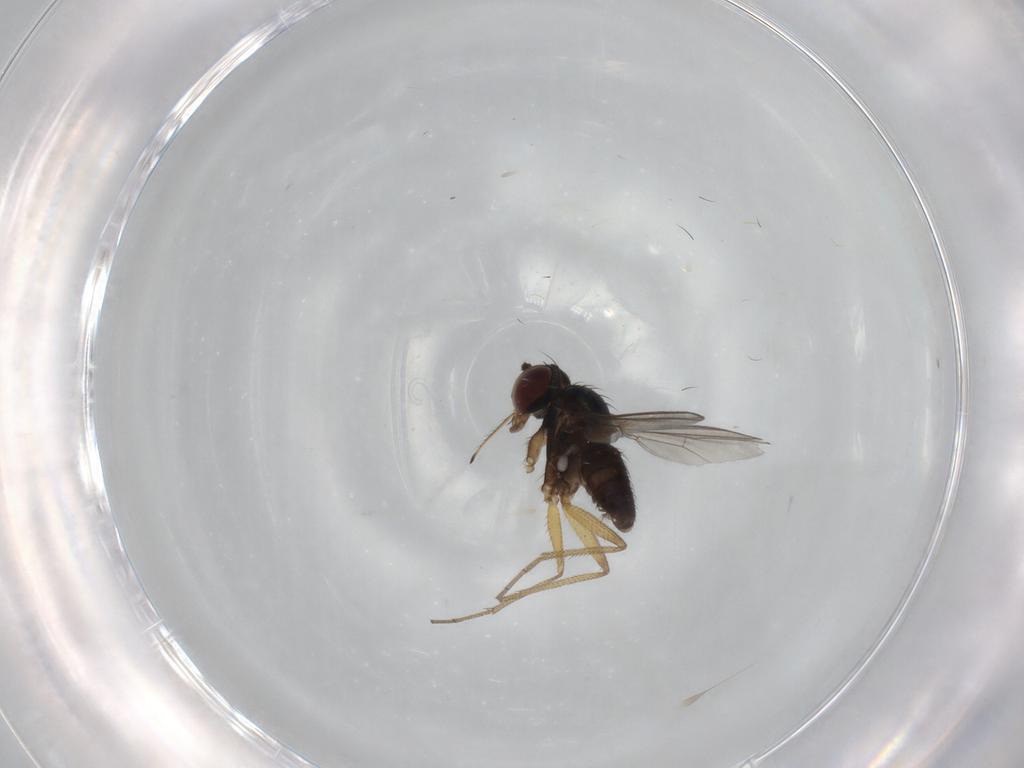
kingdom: Animalia
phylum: Arthropoda
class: Insecta
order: Diptera
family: Dolichopodidae
